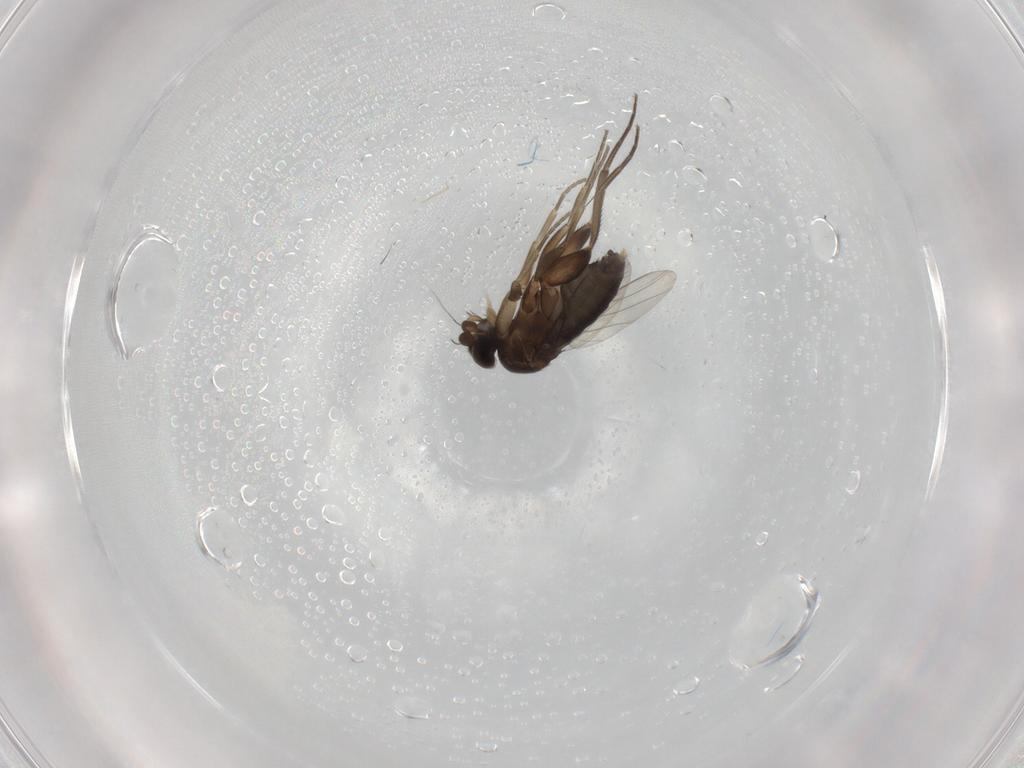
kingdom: Animalia
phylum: Arthropoda
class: Insecta
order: Diptera
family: Phoridae
